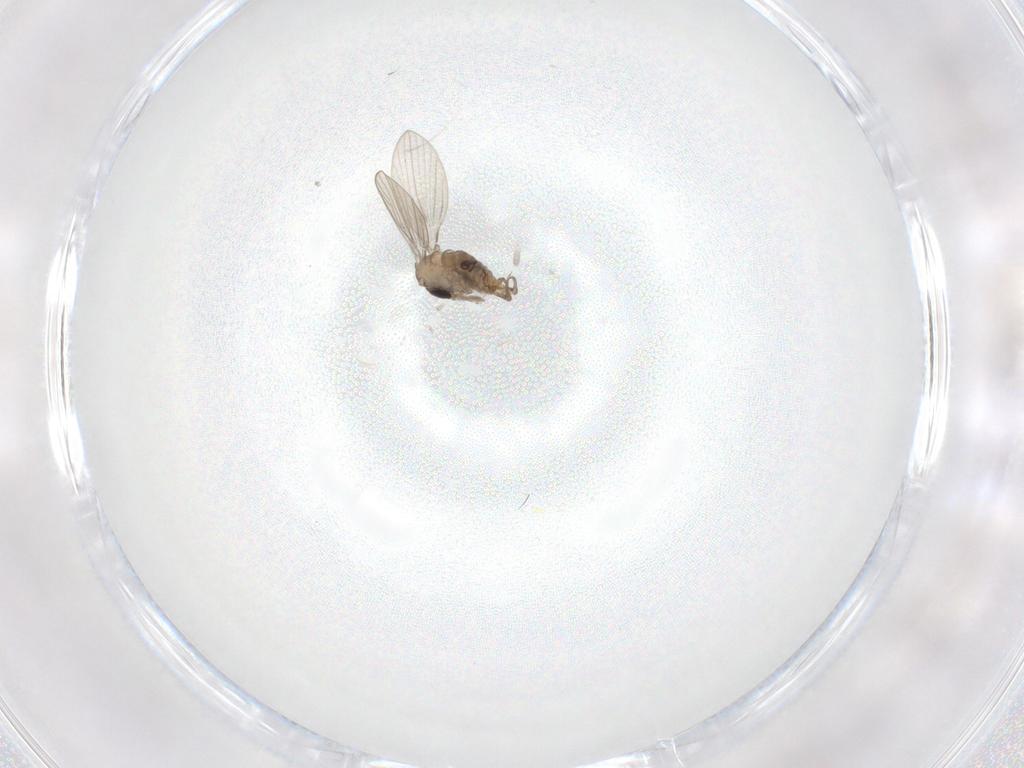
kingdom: Animalia
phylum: Arthropoda
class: Insecta
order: Diptera
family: Psychodidae
